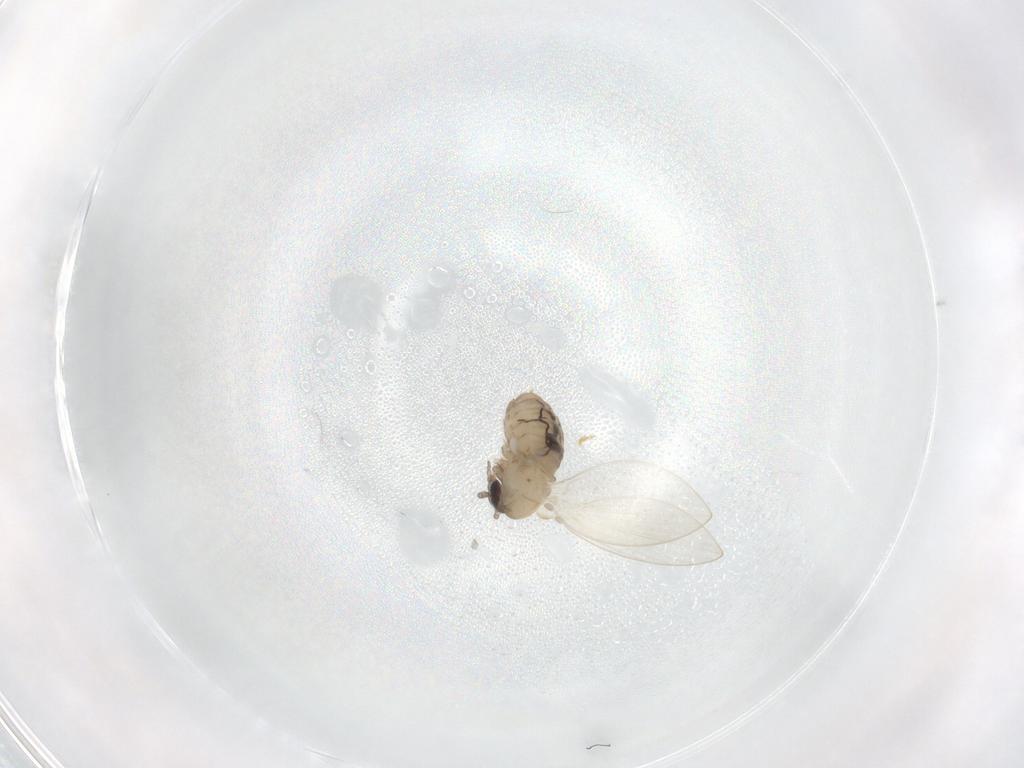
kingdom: Animalia
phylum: Arthropoda
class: Insecta
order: Diptera
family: Psychodidae
